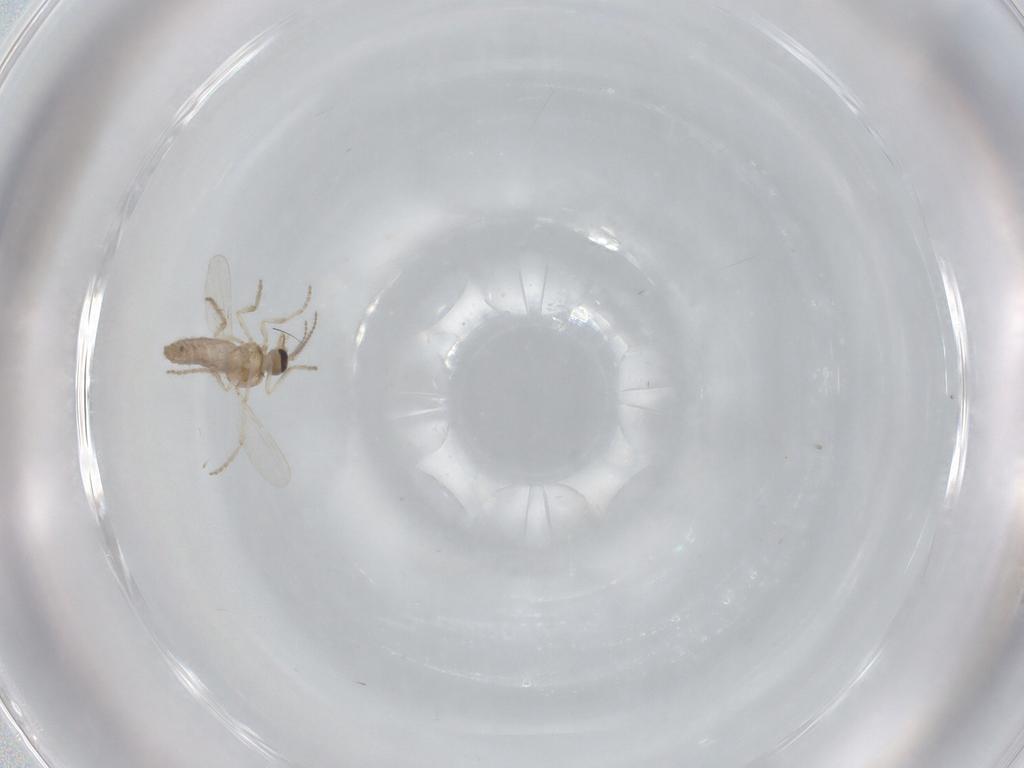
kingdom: Animalia
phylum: Arthropoda
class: Insecta
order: Diptera
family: Ceratopogonidae
